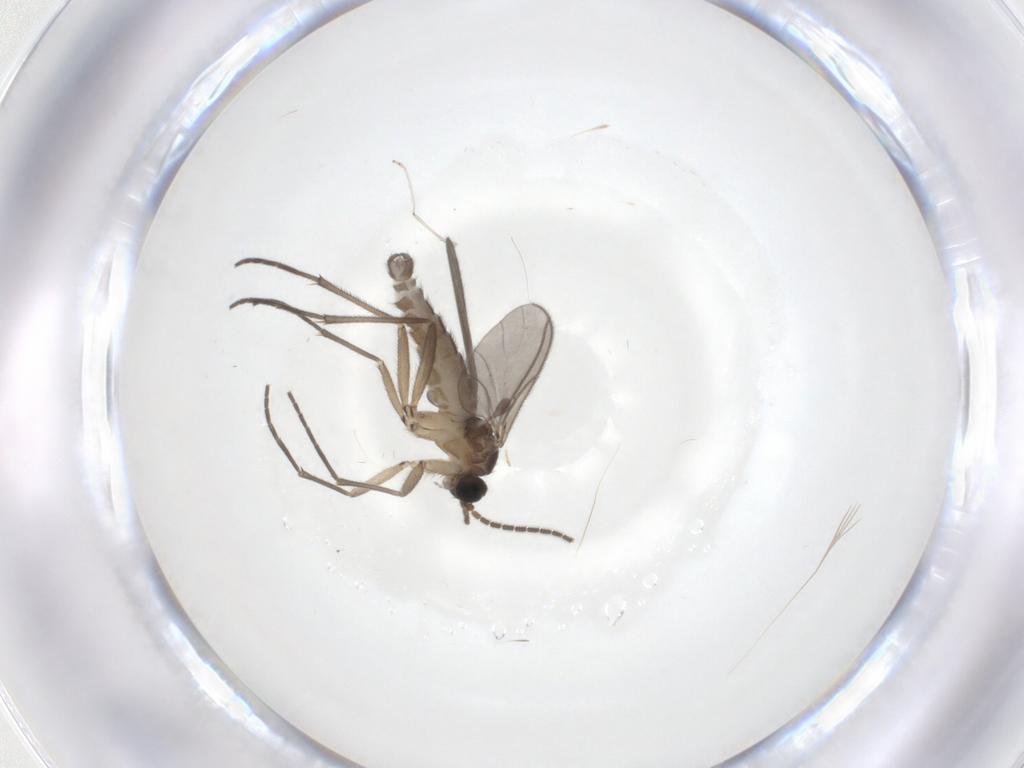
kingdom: Animalia
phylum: Arthropoda
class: Insecta
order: Diptera
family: Sciaridae
